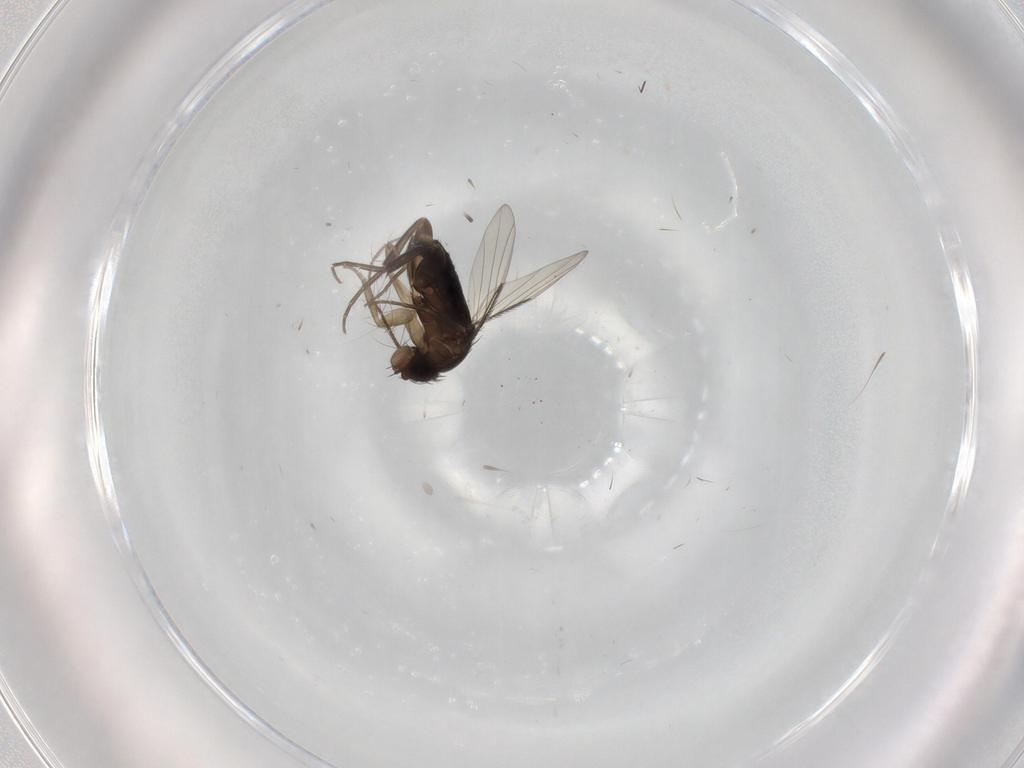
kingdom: Animalia
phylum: Arthropoda
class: Insecta
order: Diptera
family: Phoridae
